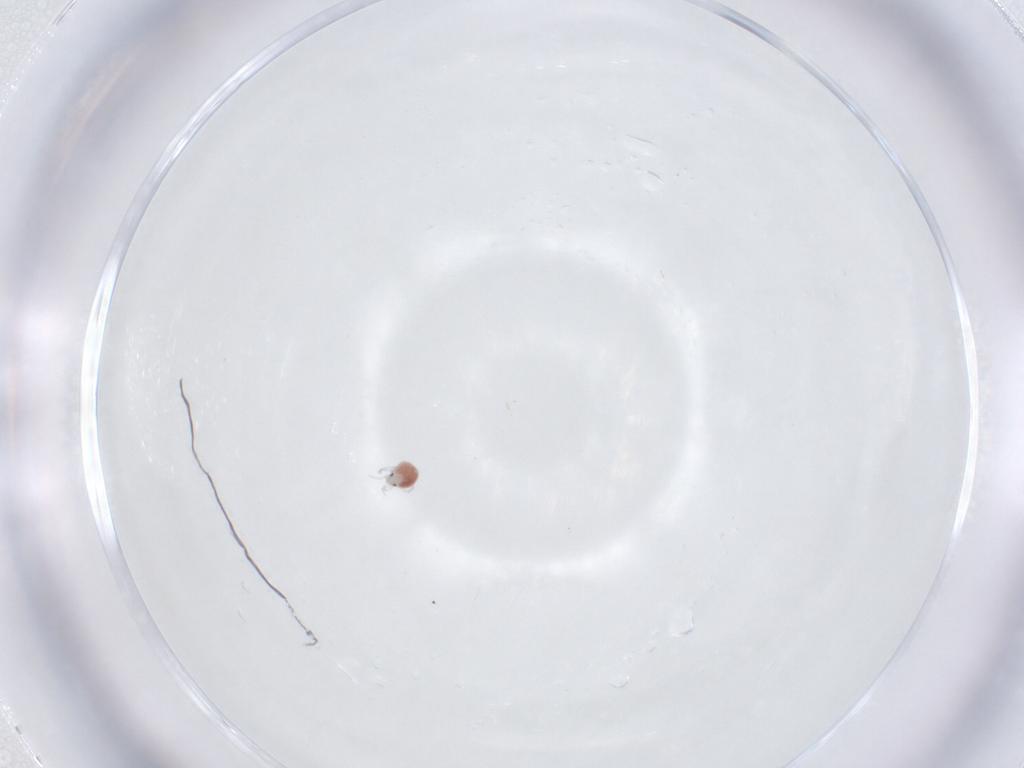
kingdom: Animalia
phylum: Arthropoda
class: Arachnida
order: Trombidiformes
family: Pionidae
